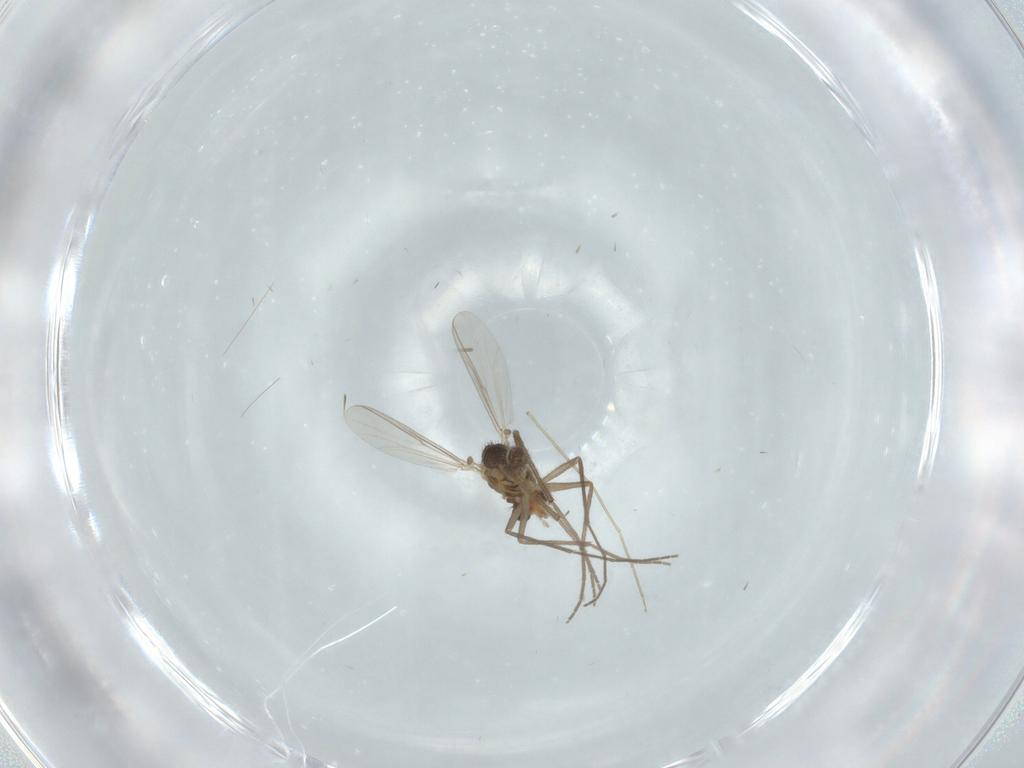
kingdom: Animalia
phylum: Arthropoda
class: Insecta
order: Diptera
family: Chironomidae
